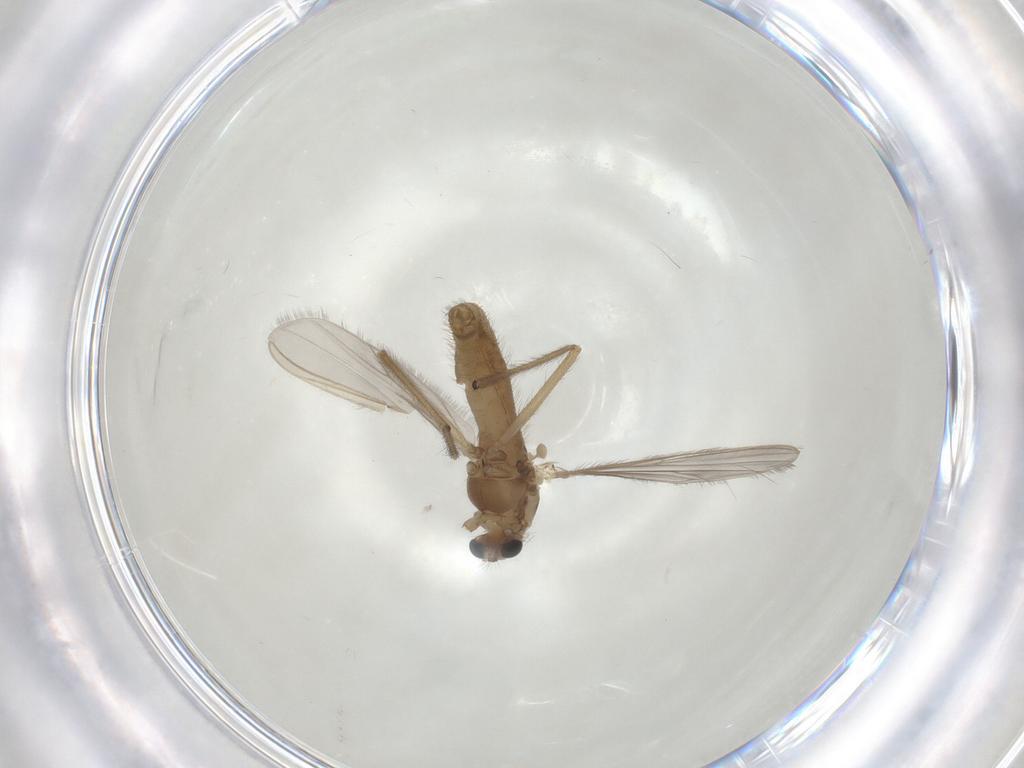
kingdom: Animalia
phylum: Arthropoda
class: Insecta
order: Diptera
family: Chironomidae
